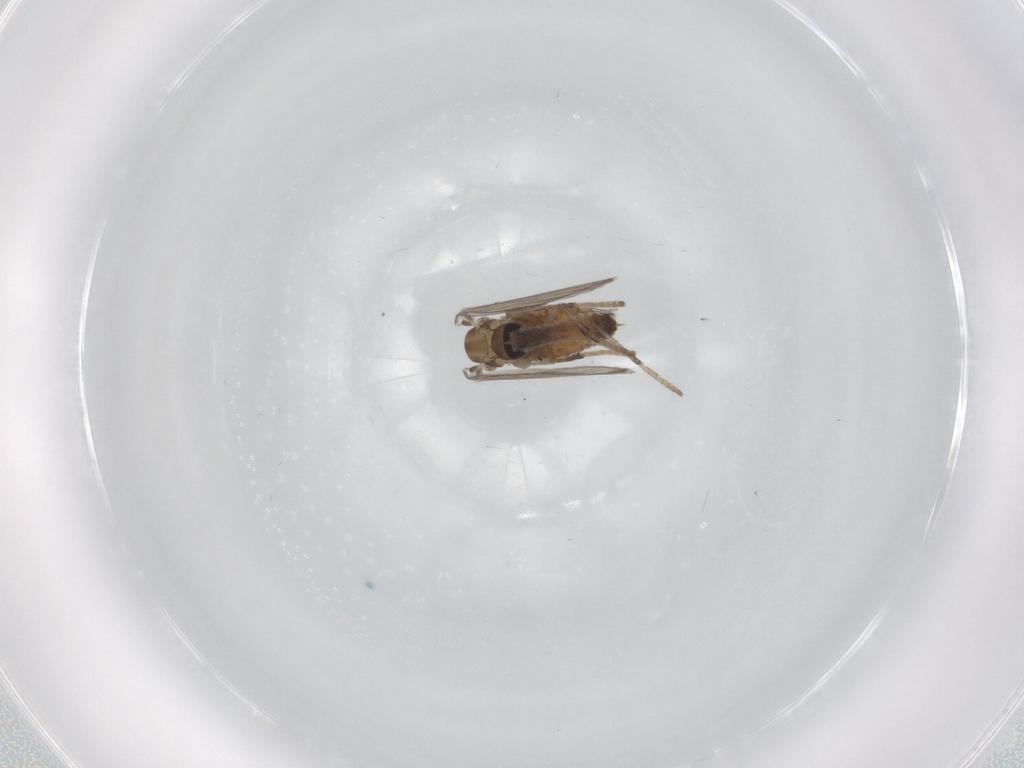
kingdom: Animalia
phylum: Arthropoda
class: Insecta
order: Diptera
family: Psychodidae
